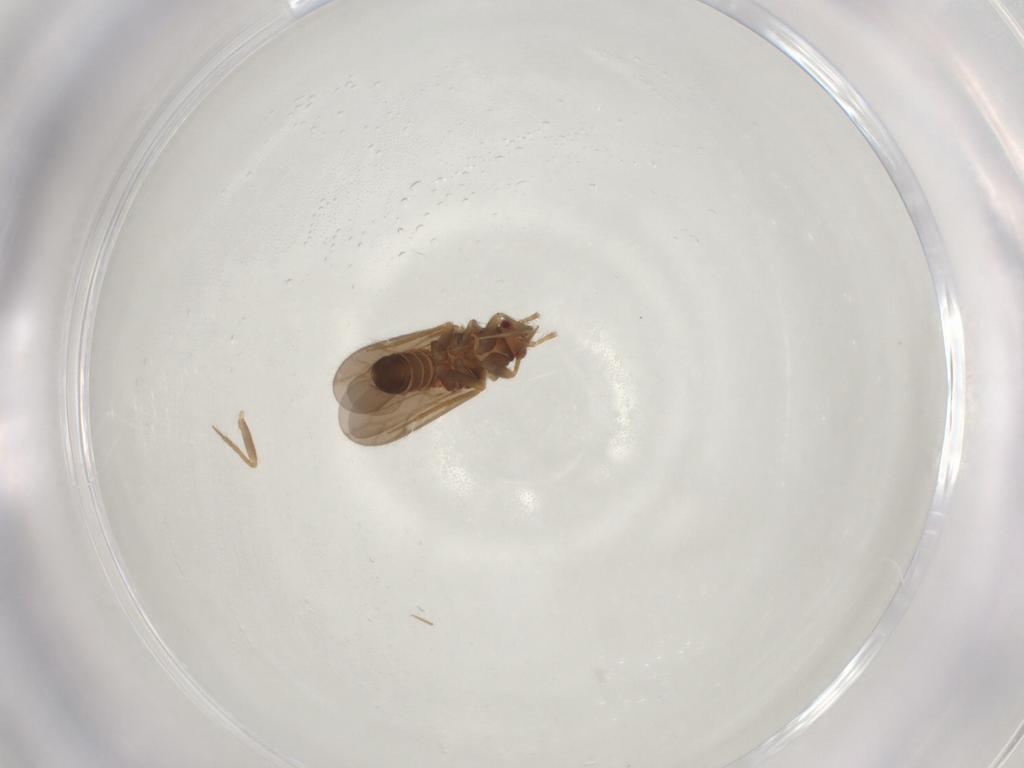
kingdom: Animalia
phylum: Arthropoda
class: Insecta
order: Hemiptera
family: Ceratocombidae
